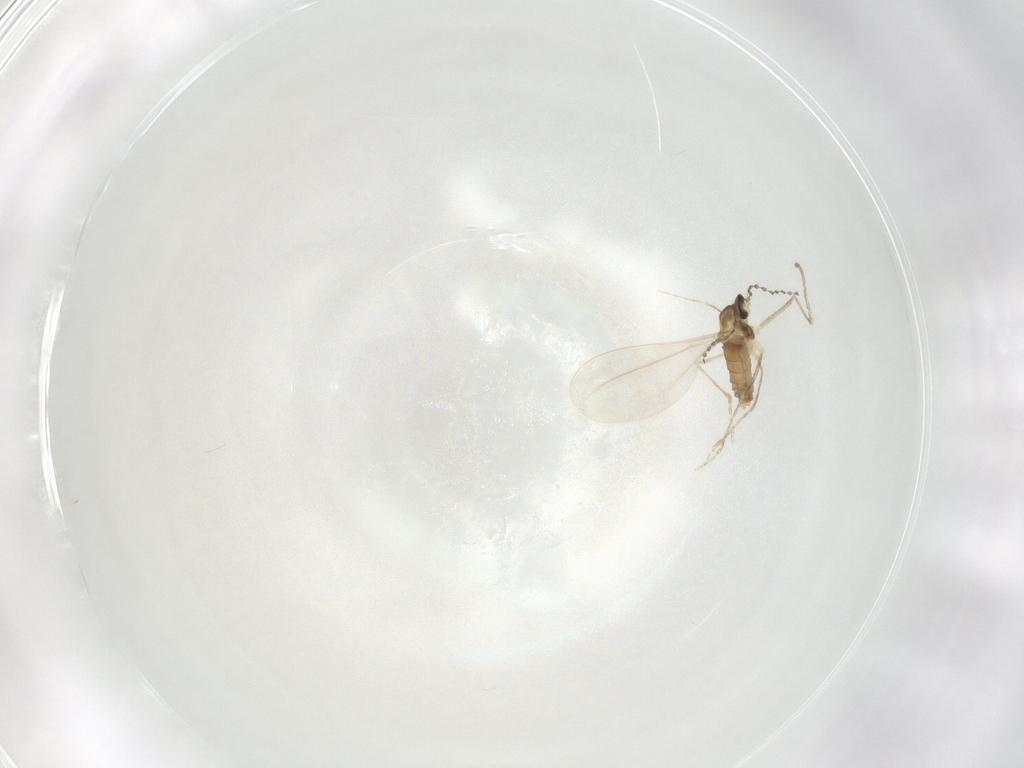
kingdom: Animalia
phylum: Arthropoda
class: Insecta
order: Diptera
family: Cecidomyiidae
